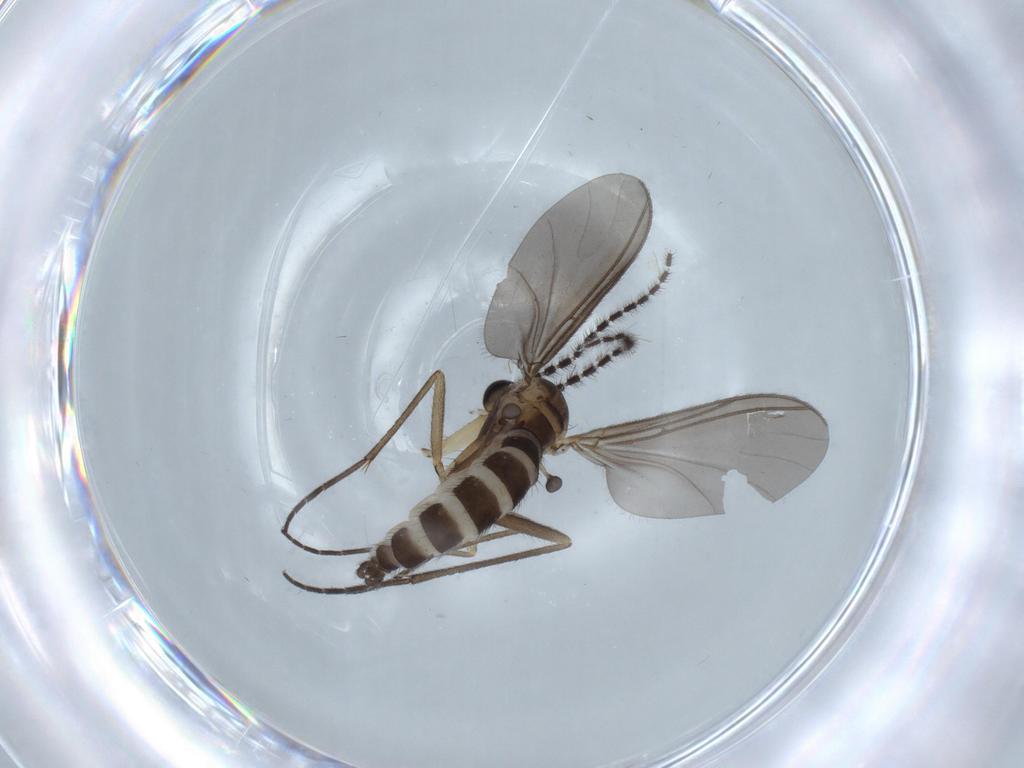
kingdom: Animalia
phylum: Arthropoda
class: Insecta
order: Diptera
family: Sciaridae
